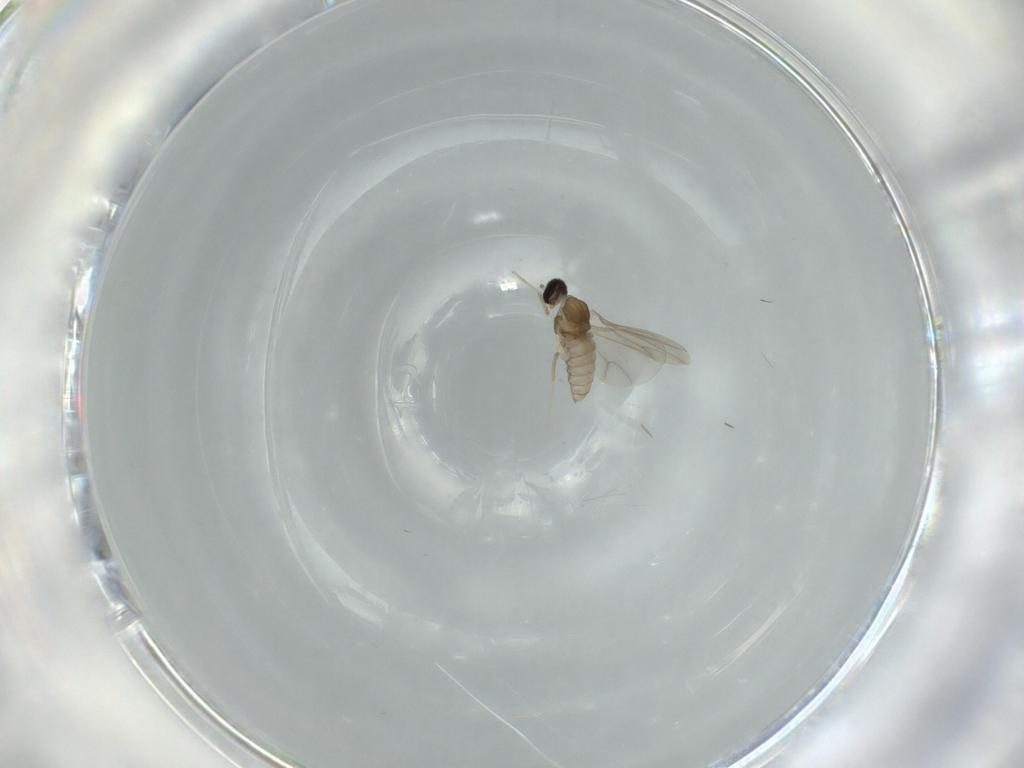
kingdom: Animalia
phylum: Arthropoda
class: Insecta
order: Diptera
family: Cecidomyiidae
